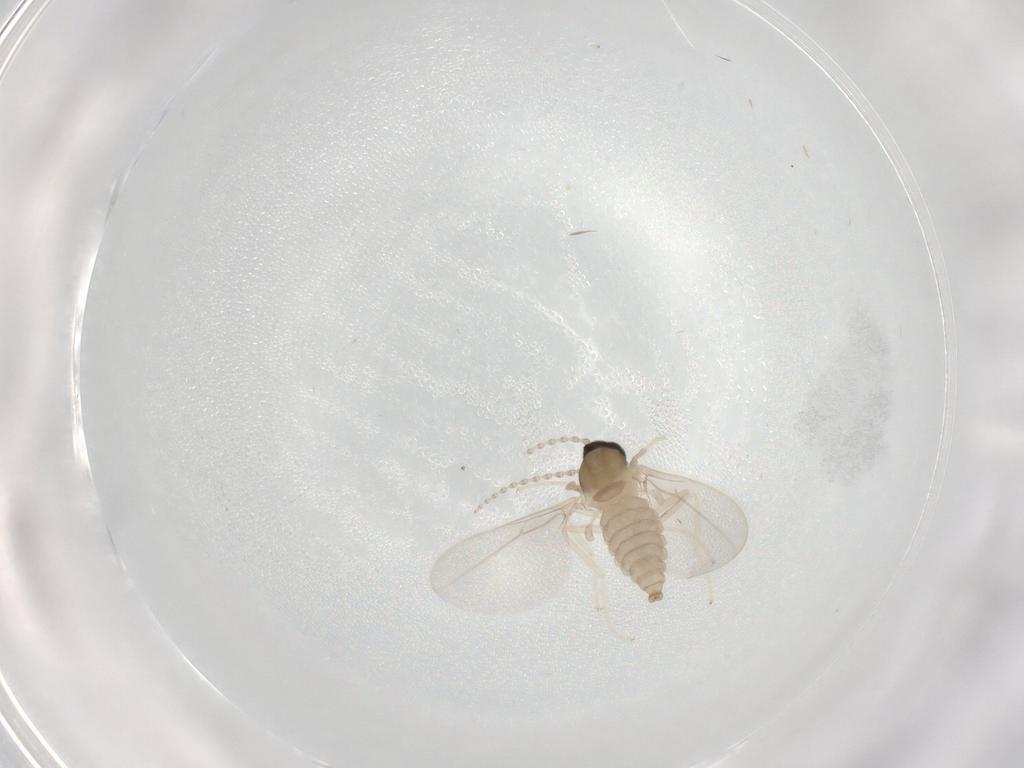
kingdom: Animalia
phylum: Arthropoda
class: Insecta
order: Diptera
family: Cecidomyiidae
